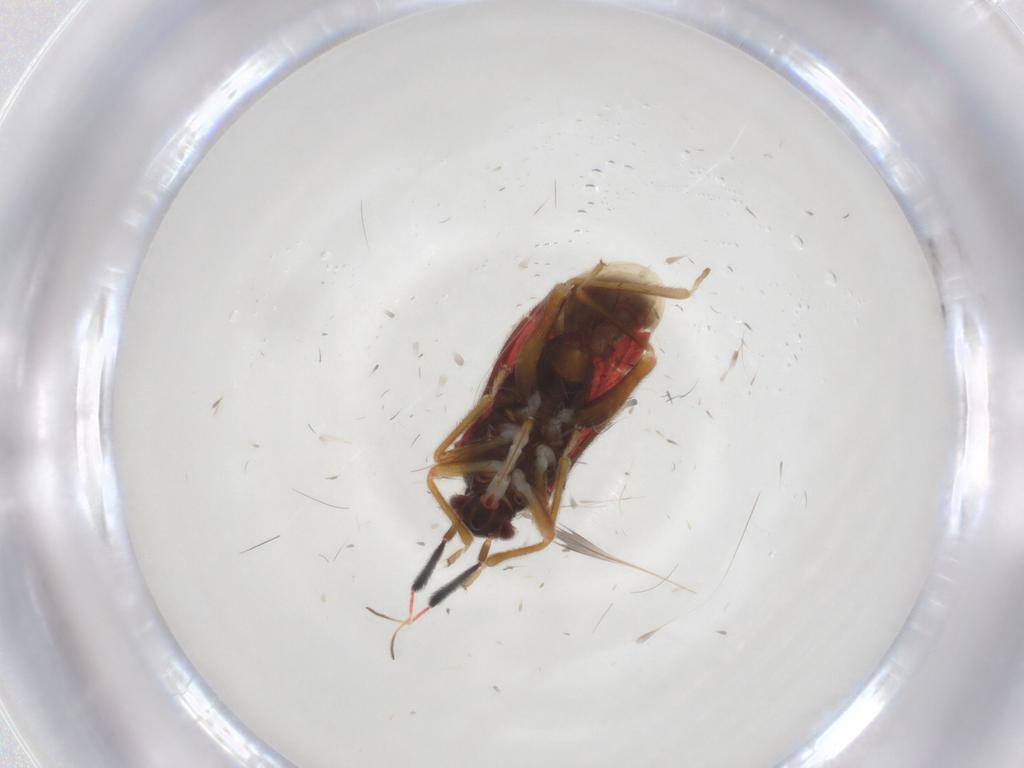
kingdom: Animalia
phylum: Arthropoda
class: Insecta
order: Hemiptera
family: Miridae
